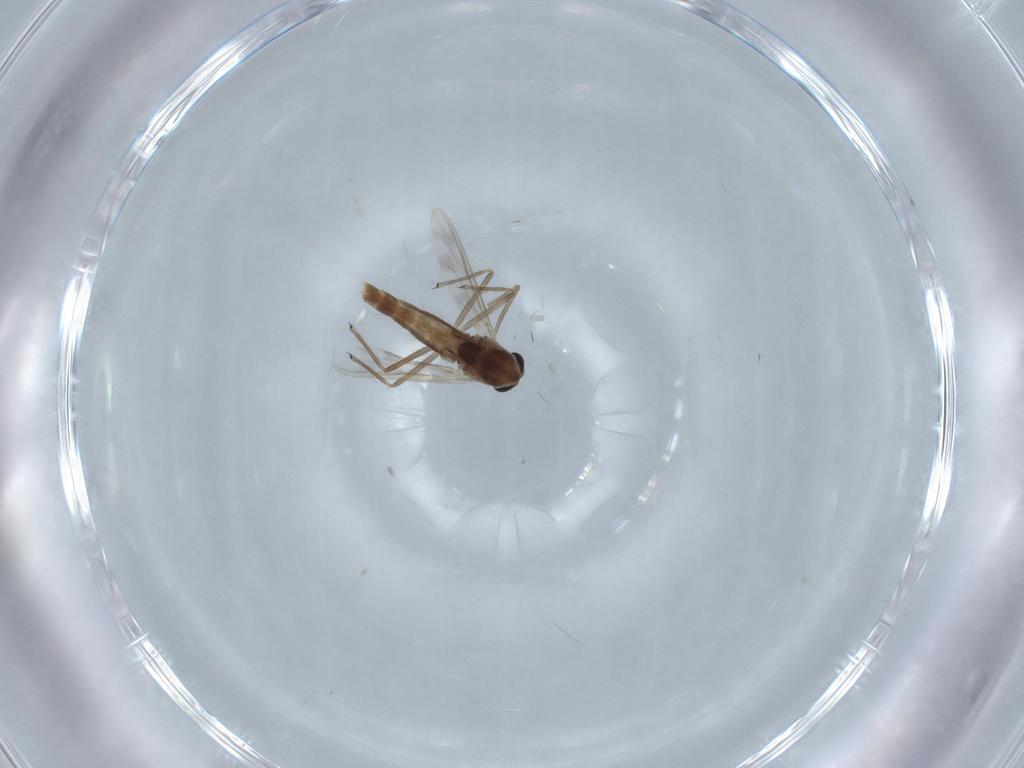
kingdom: Animalia
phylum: Arthropoda
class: Insecta
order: Diptera
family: Chironomidae
